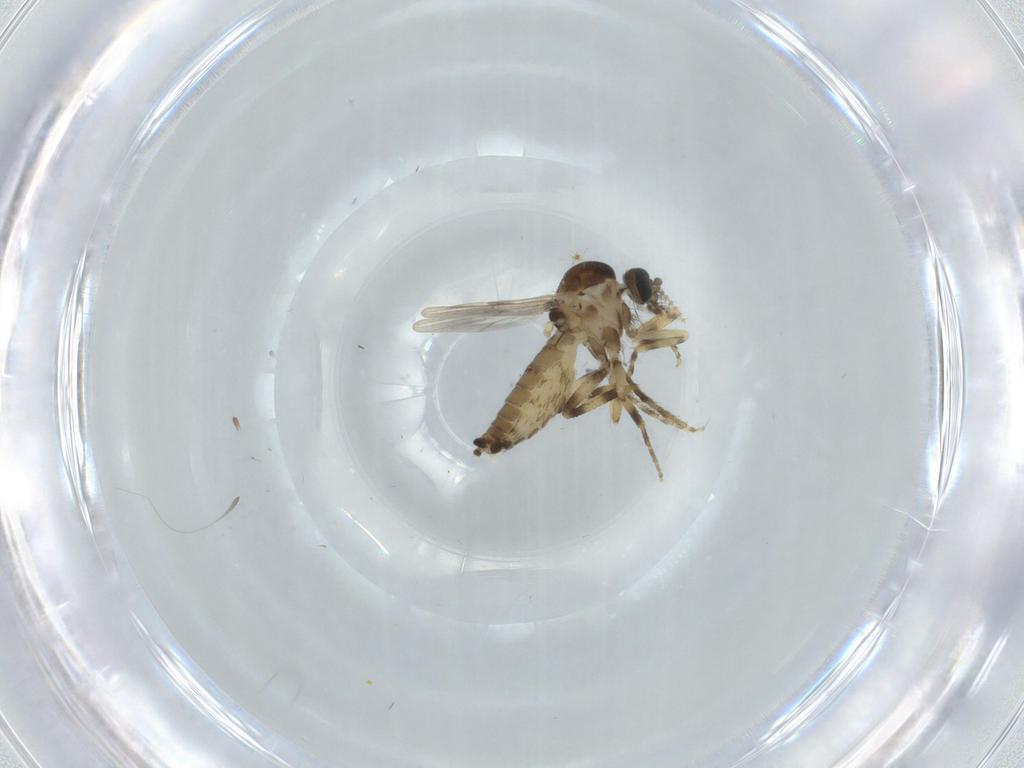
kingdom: Animalia
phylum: Arthropoda
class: Insecta
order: Diptera
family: Ceratopogonidae
